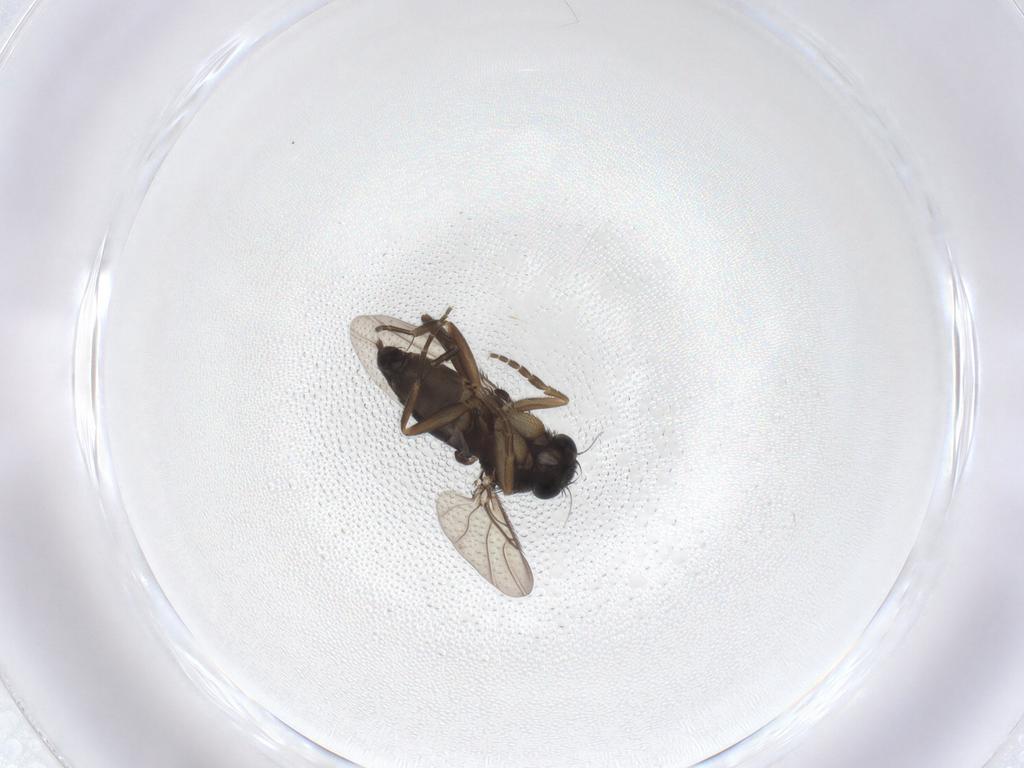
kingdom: Animalia
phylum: Arthropoda
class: Insecta
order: Diptera
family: Phoridae
